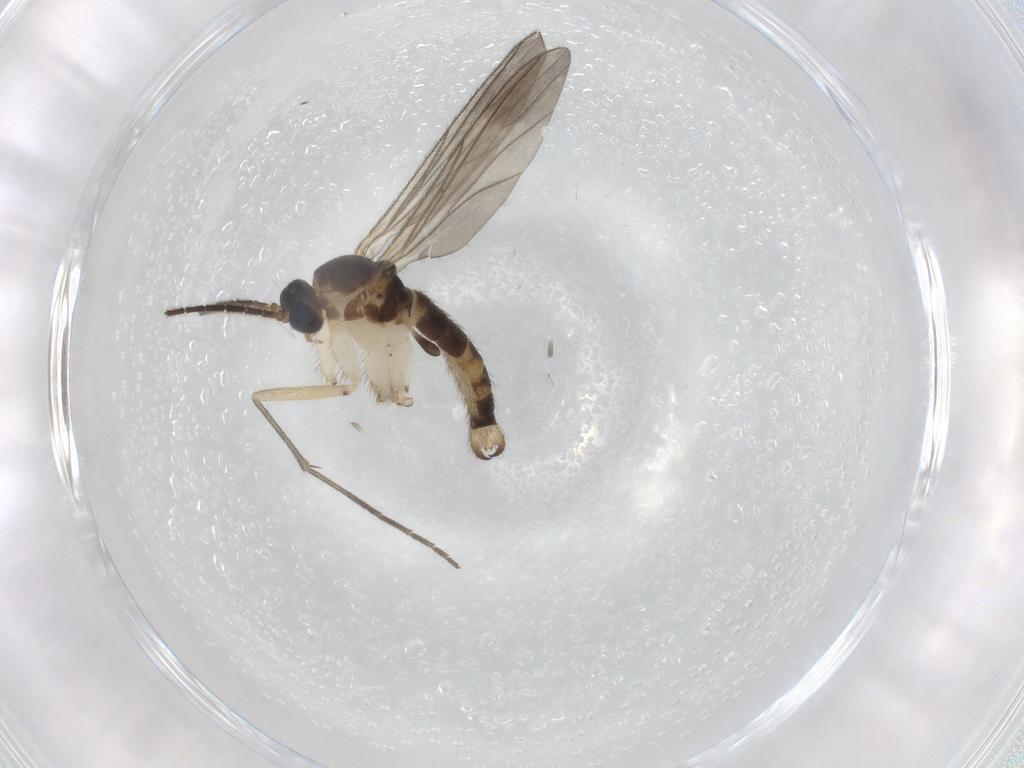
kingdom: Animalia
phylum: Arthropoda
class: Insecta
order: Diptera
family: Sciaridae
